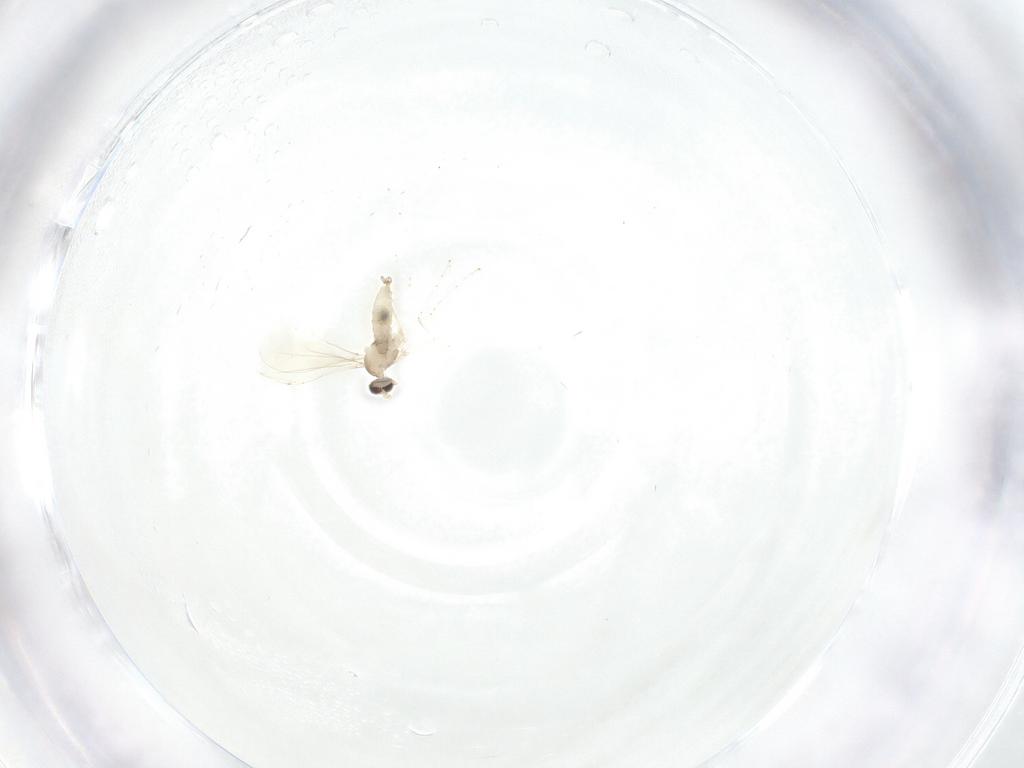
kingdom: Animalia
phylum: Arthropoda
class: Insecta
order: Diptera
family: Cecidomyiidae
